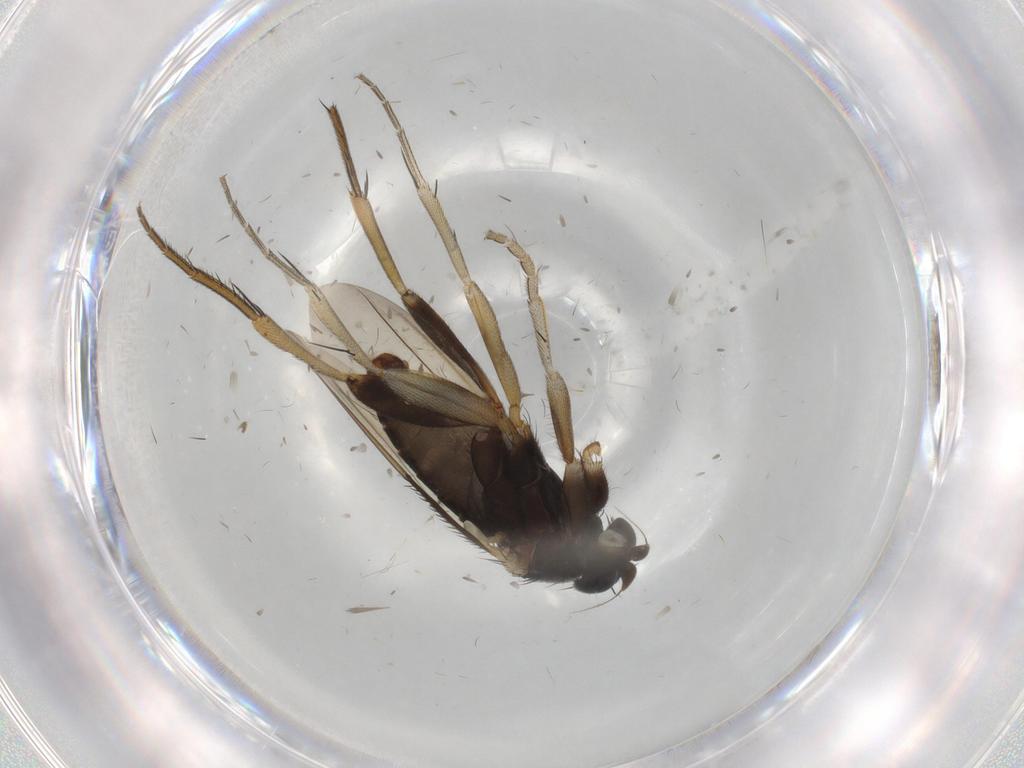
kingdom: Animalia
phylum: Arthropoda
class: Insecta
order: Diptera
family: Phoridae
